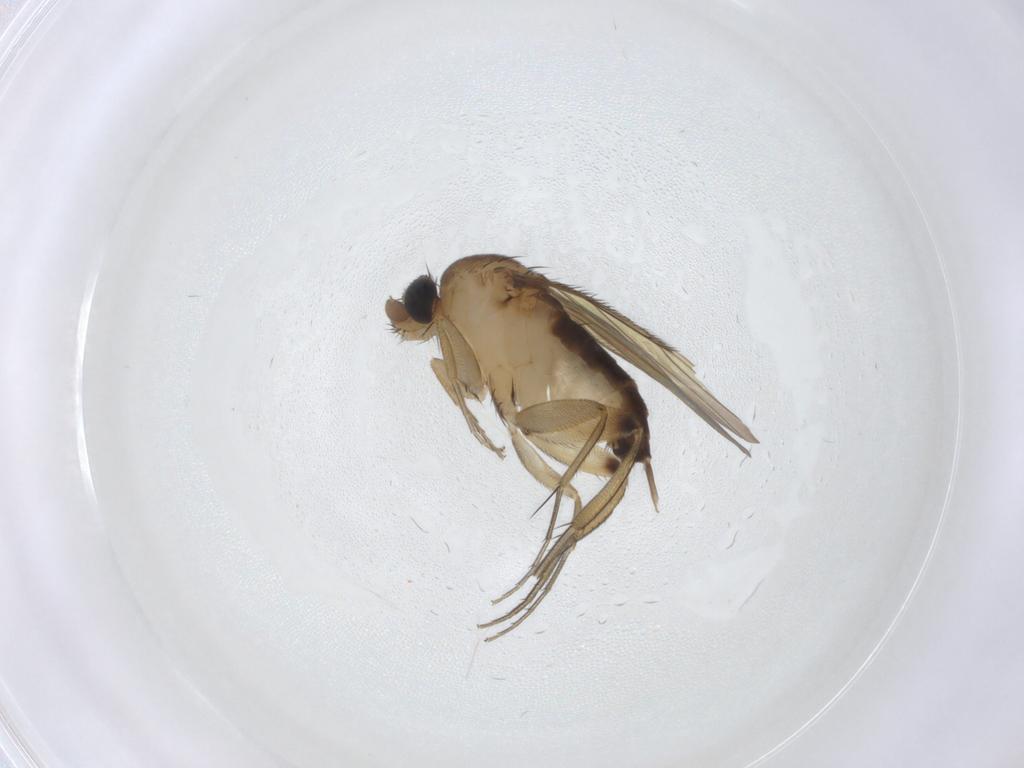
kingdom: Animalia
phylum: Arthropoda
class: Insecta
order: Diptera
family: Phoridae
